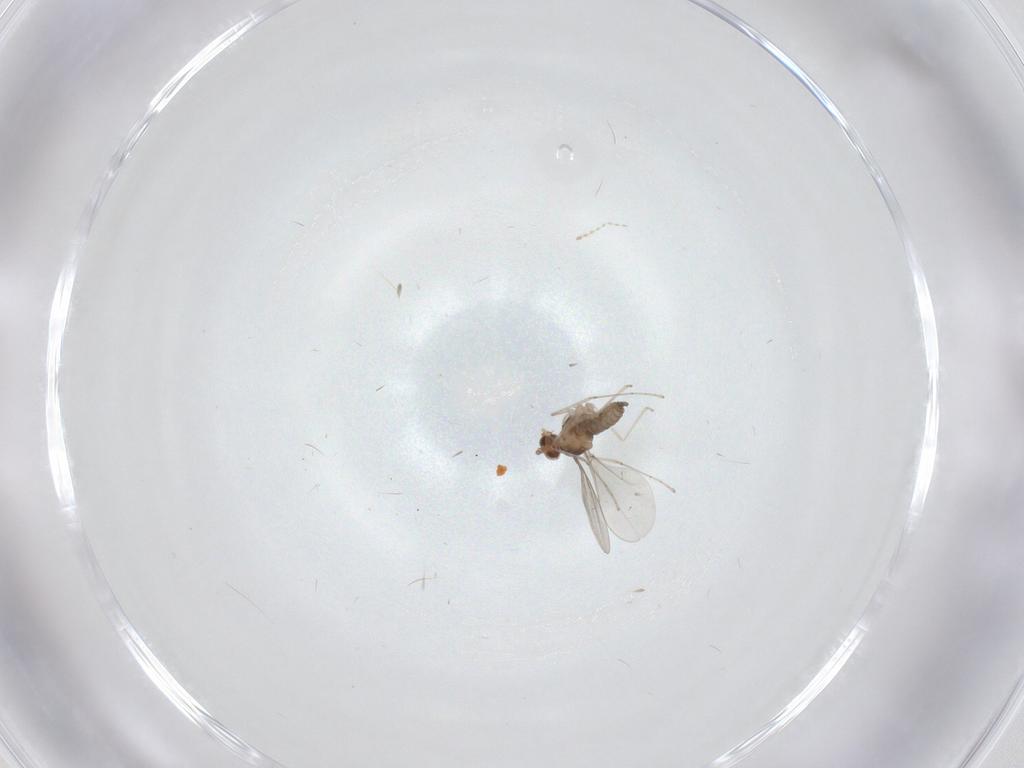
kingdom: Animalia
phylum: Arthropoda
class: Insecta
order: Diptera
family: Cecidomyiidae
